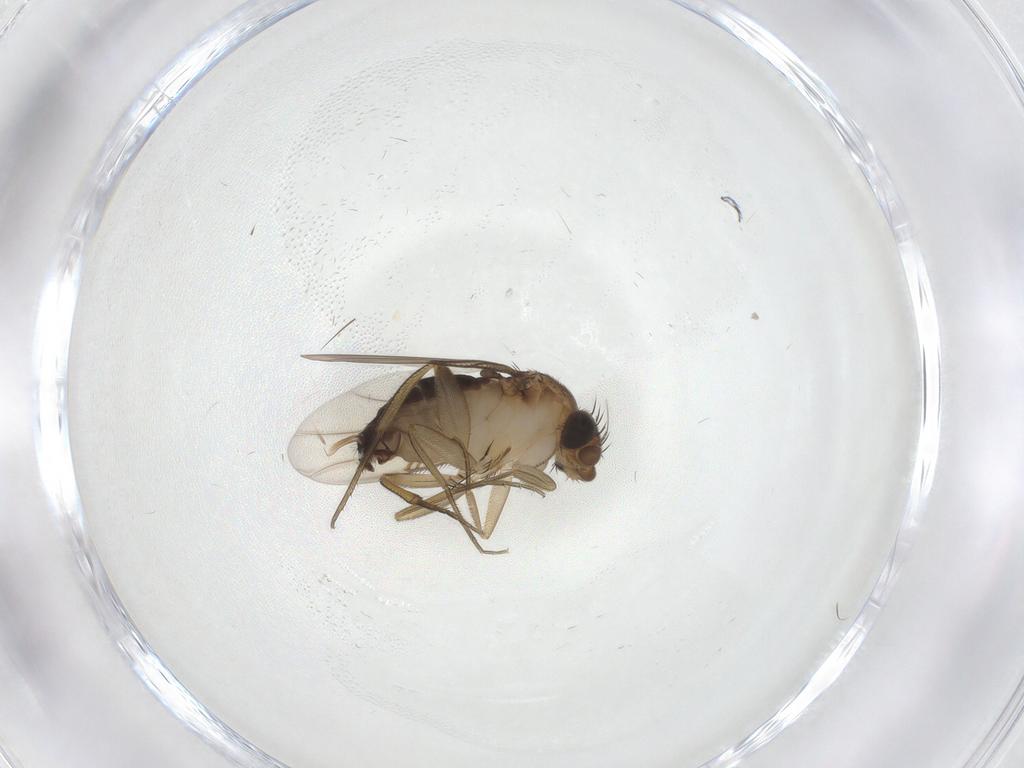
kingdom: Animalia
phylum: Arthropoda
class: Insecta
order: Diptera
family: Phoridae
